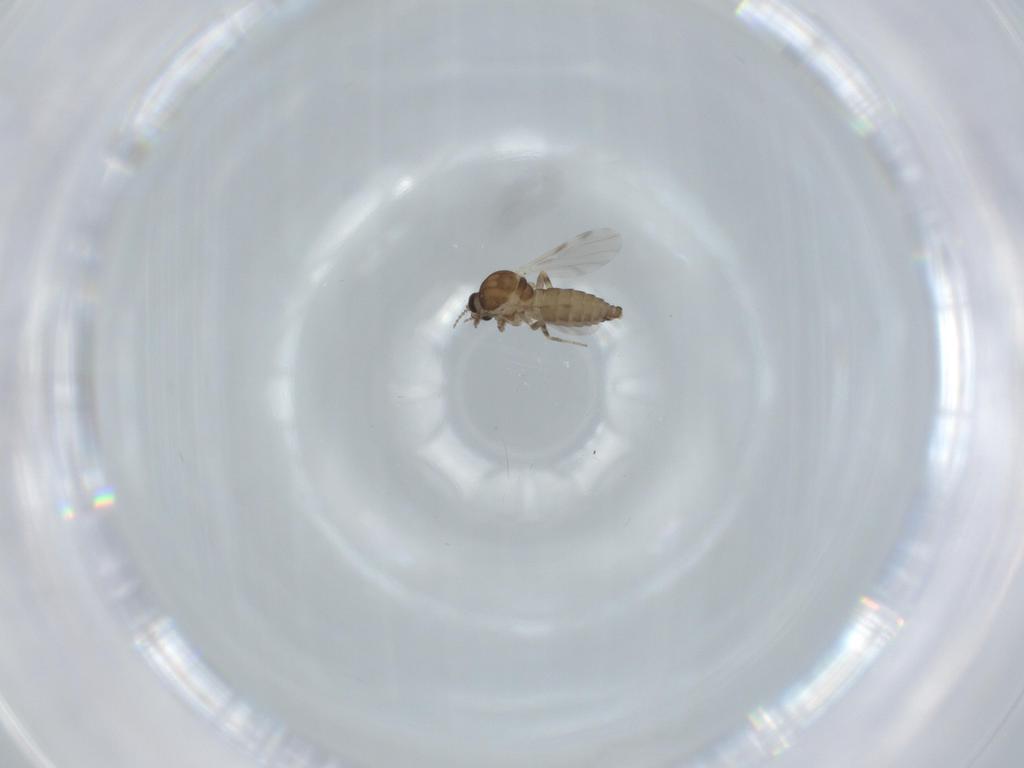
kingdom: Animalia
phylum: Arthropoda
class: Insecta
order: Diptera
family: Ceratopogonidae
